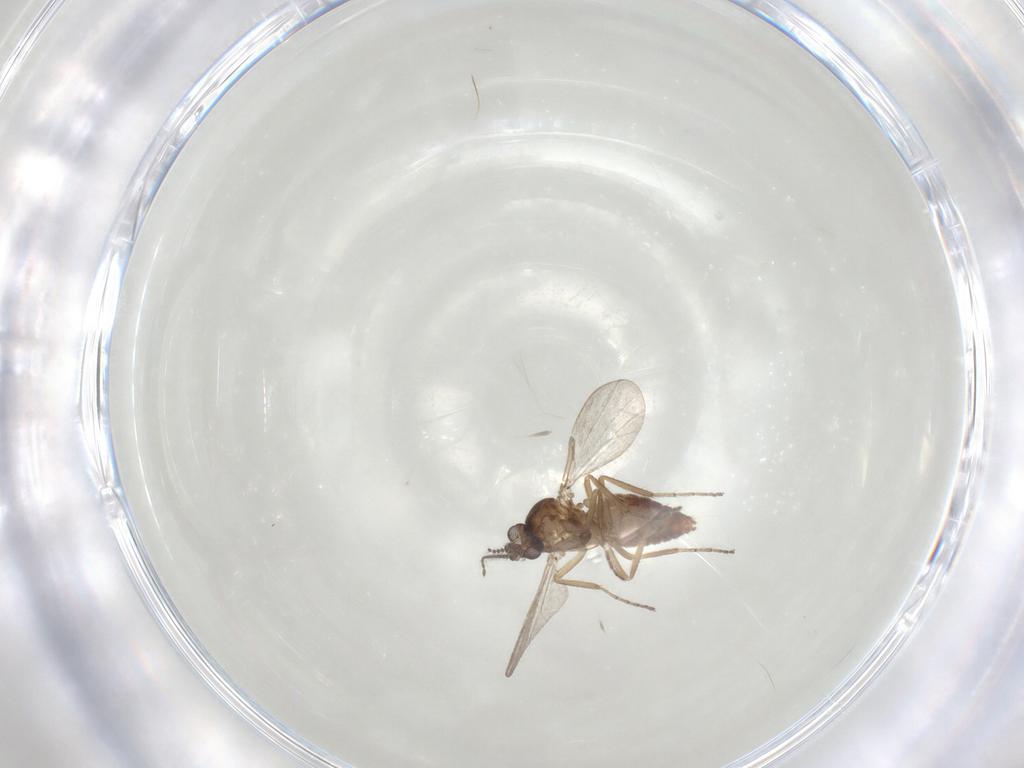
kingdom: Animalia
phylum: Arthropoda
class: Insecta
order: Diptera
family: Ceratopogonidae
